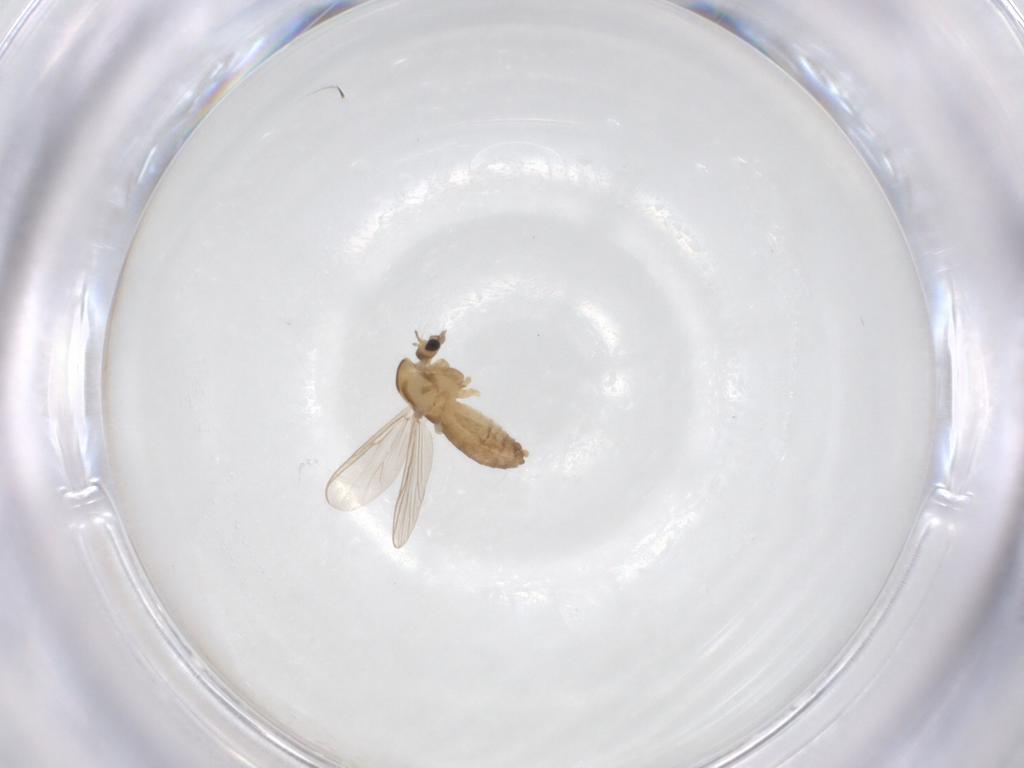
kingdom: Animalia
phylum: Arthropoda
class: Insecta
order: Diptera
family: Chironomidae
